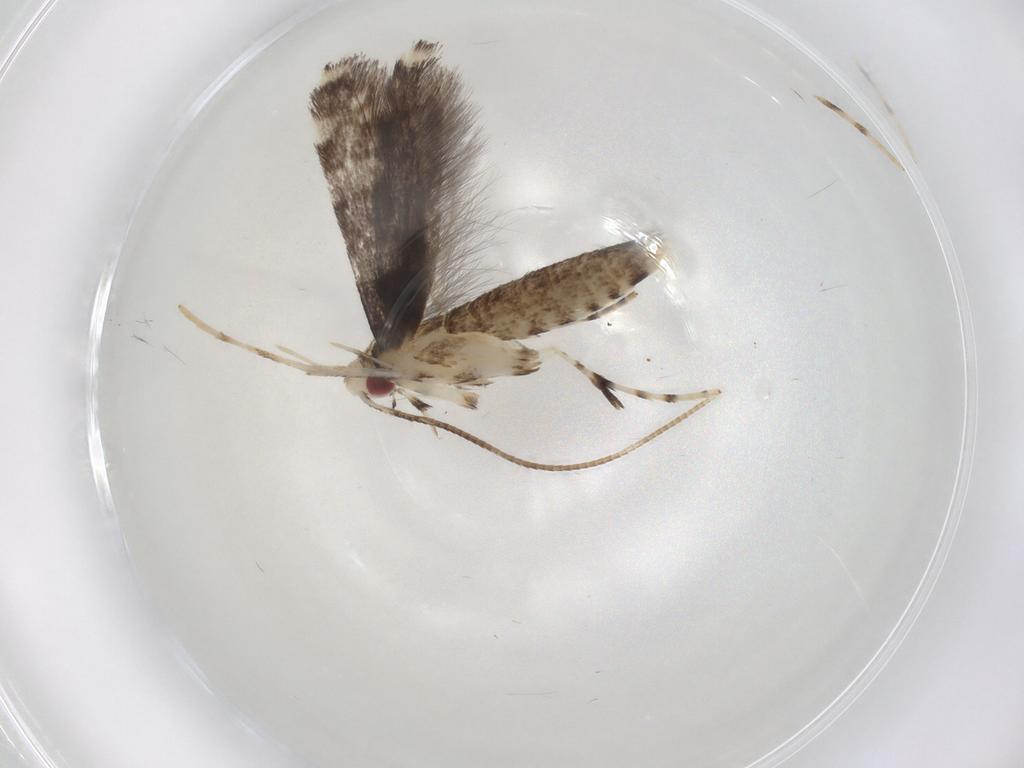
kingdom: Animalia
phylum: Arthropoda
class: Insecta
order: Lepidoptera
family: Gracillariidae
